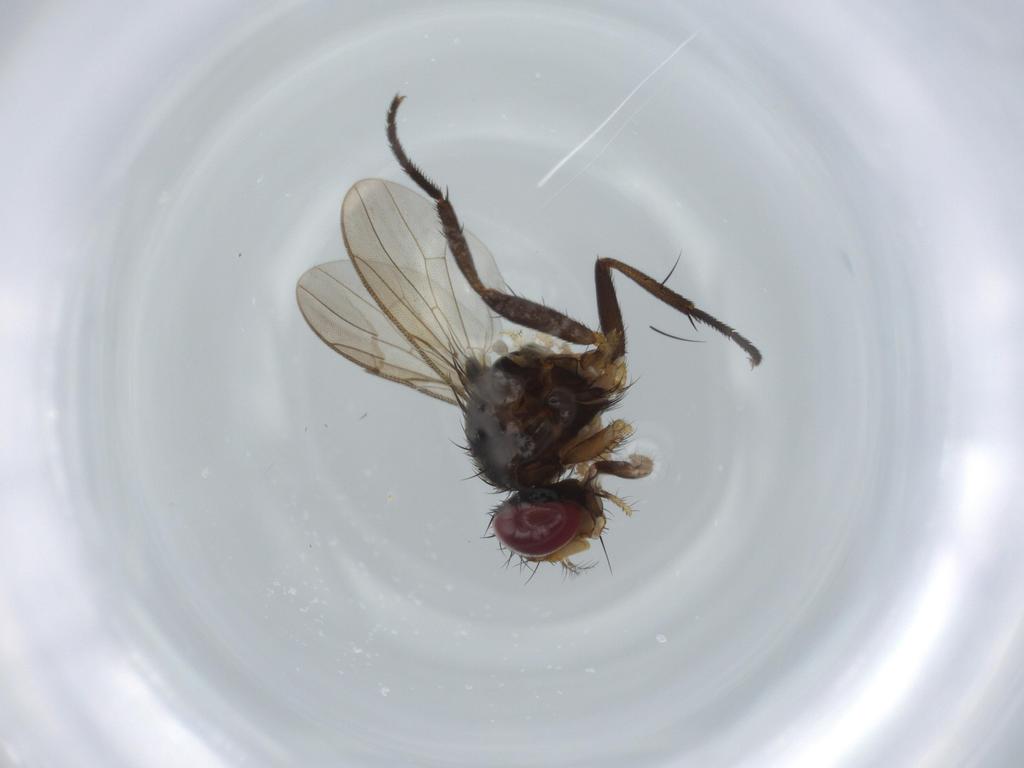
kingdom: Animalia
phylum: Arthropoda
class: Insecta
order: Diptera
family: Anthomyiidae
